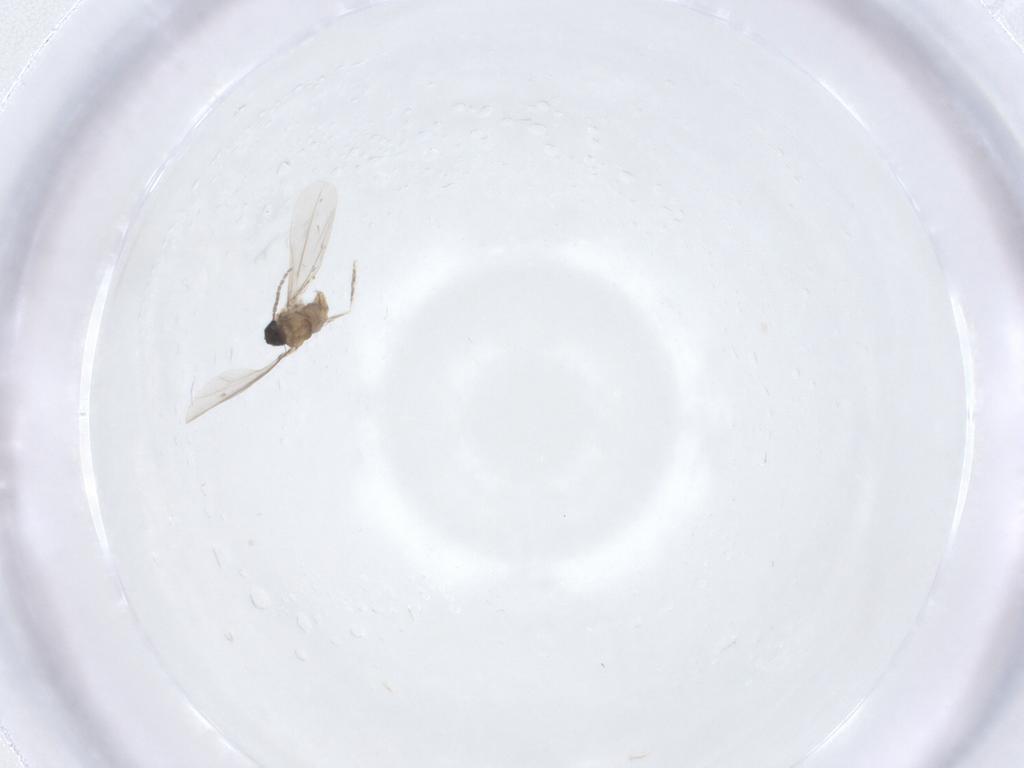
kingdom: Animalia
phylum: Arthropoda
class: Insecta
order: Diptera
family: Cecidomyiidae
